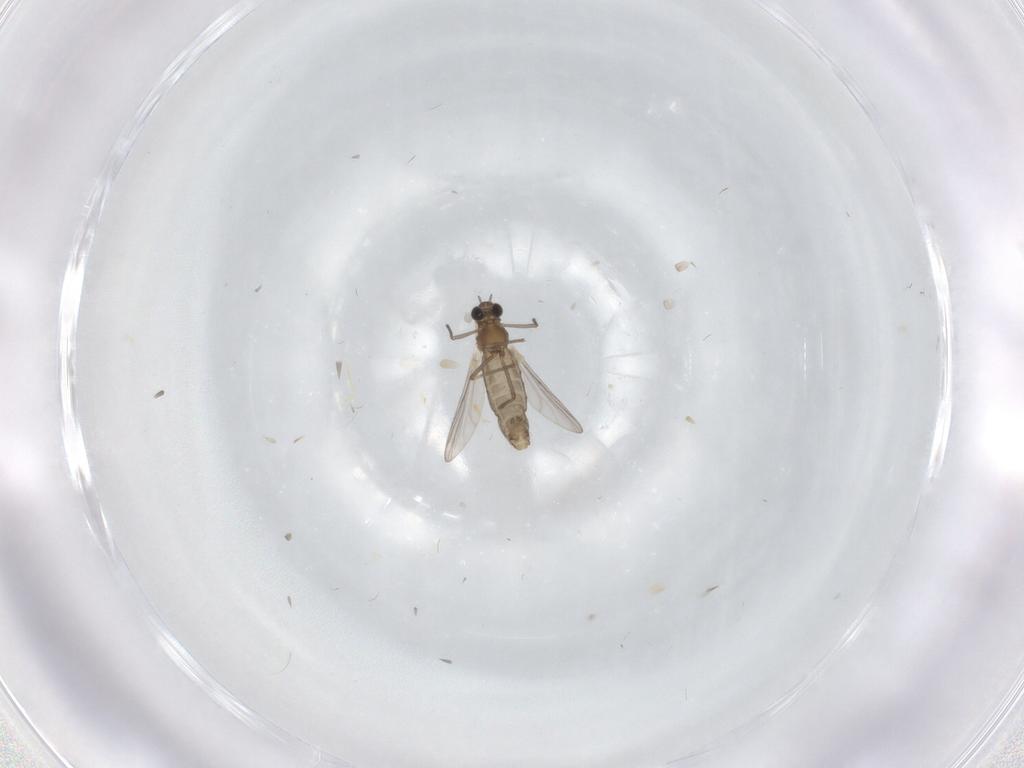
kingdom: Animalia
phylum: Arthropoda
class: Insecta
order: Diptera
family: Chironomidae
